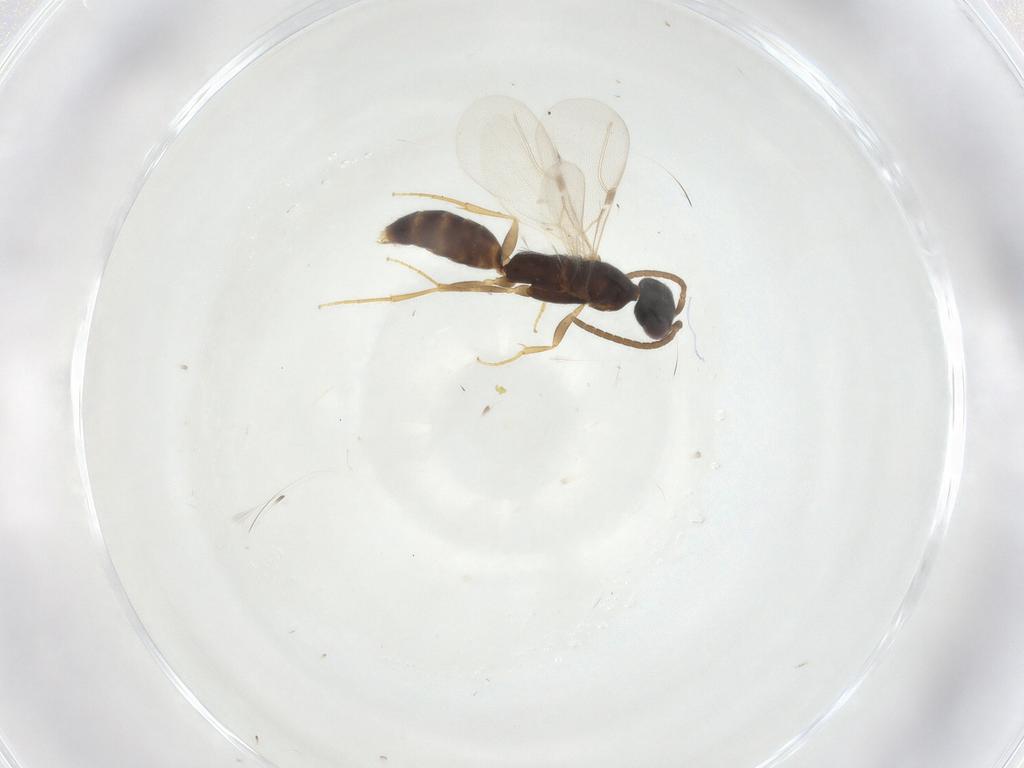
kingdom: Animalia
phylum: Arthropoda
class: Insecta
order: Hymenoptera
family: Bethylidae
